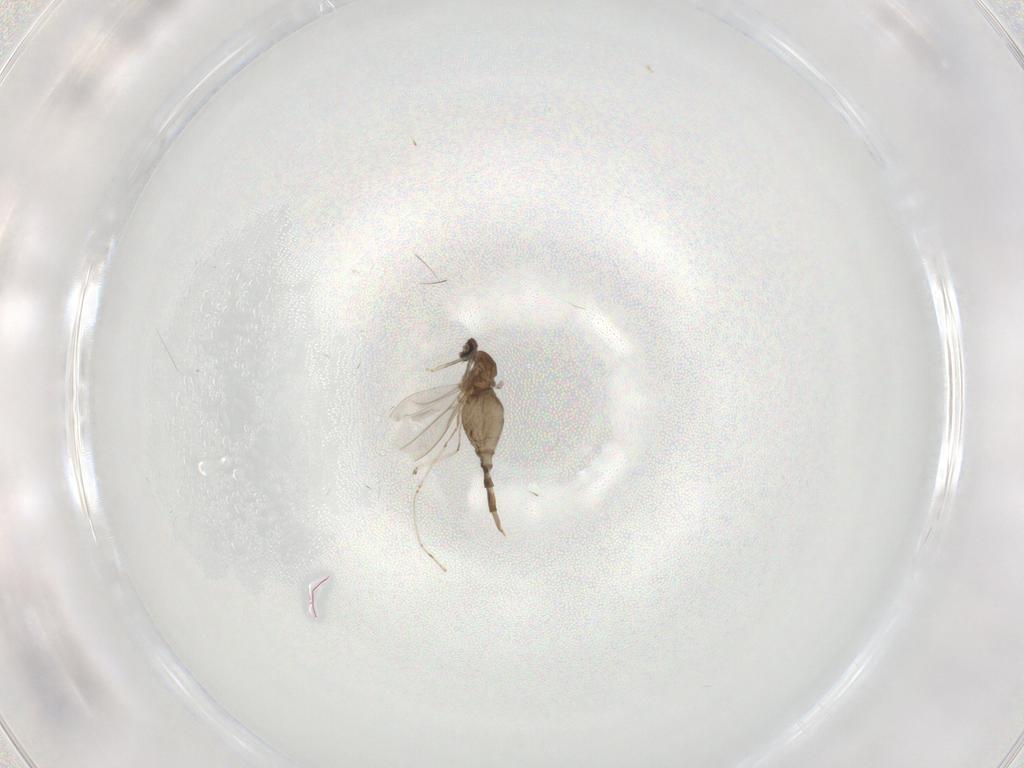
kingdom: Animalia
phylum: Arthropoda
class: Insecta
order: Diptera
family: Cecidomyiidae
